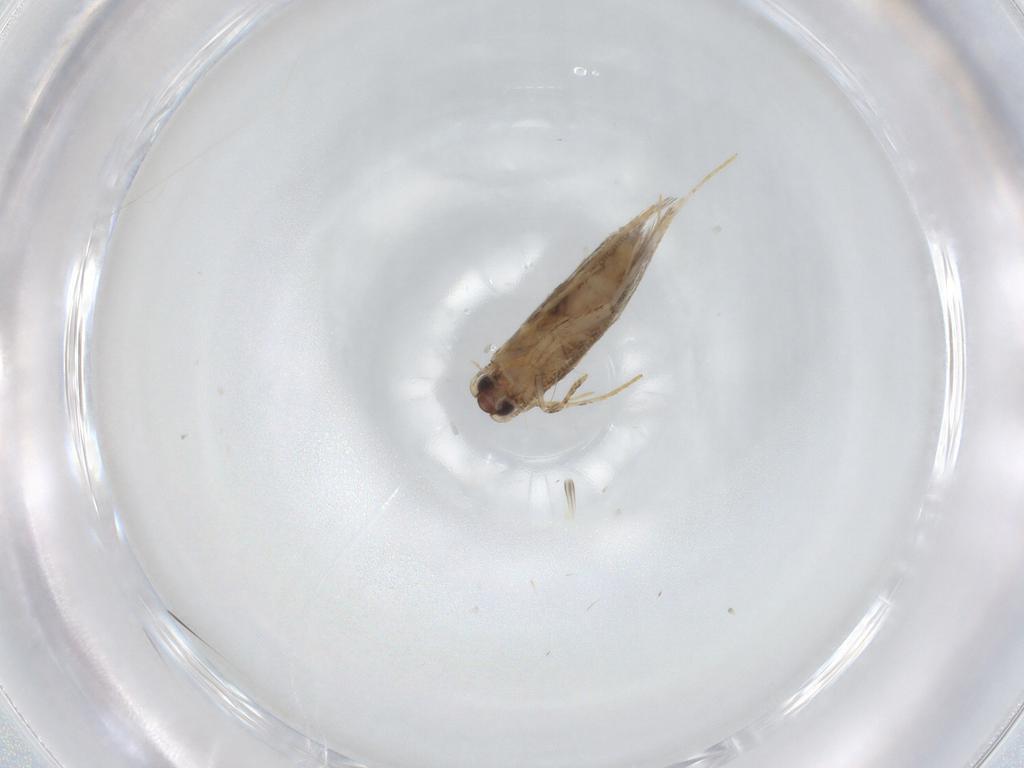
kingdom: Animalia
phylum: Arthropoda
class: Insecta
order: Lepidoptera
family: Tineidae
